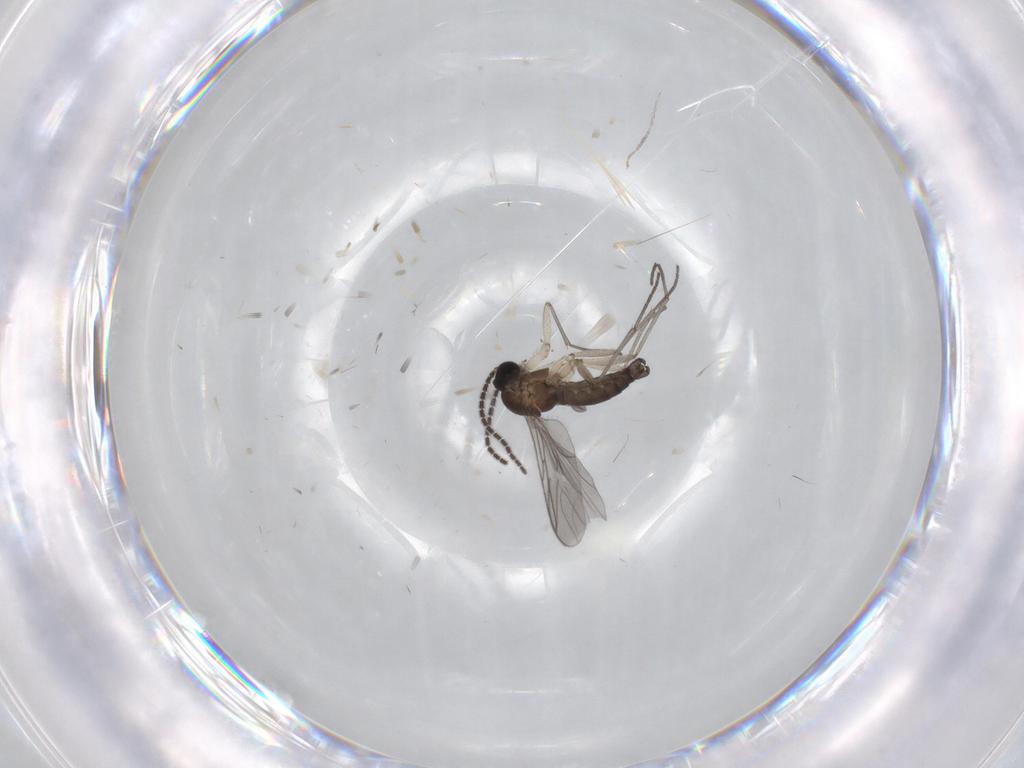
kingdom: Animalia
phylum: Arthropoda
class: Insecta
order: Diptera
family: Sciaridae
